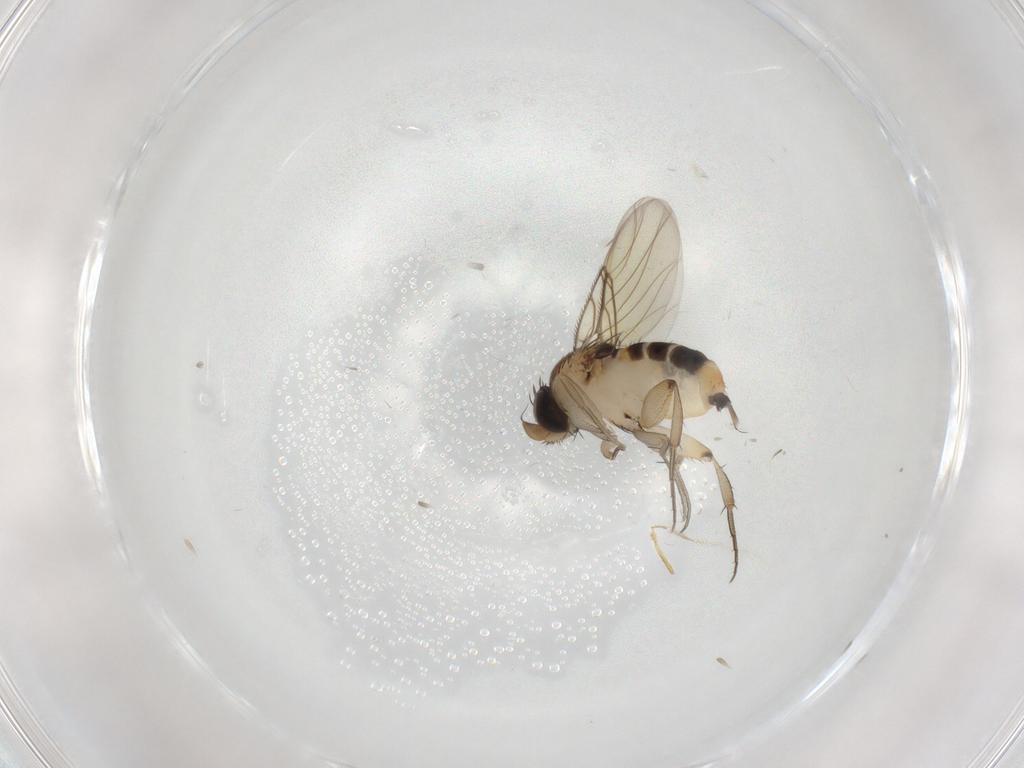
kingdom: Animalia
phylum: Arthropoda
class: Insecta
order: Diptera
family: Phoridae
